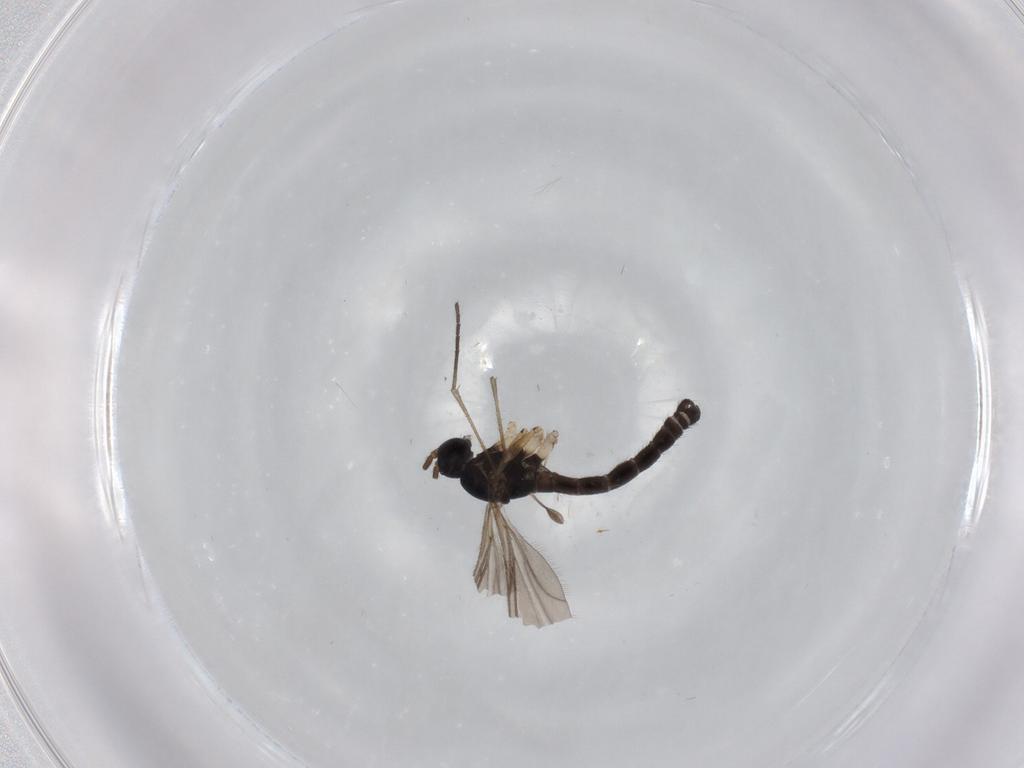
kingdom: Animalia
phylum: Arthropoda
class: Insecta
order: Diptera
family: Sciaridae
